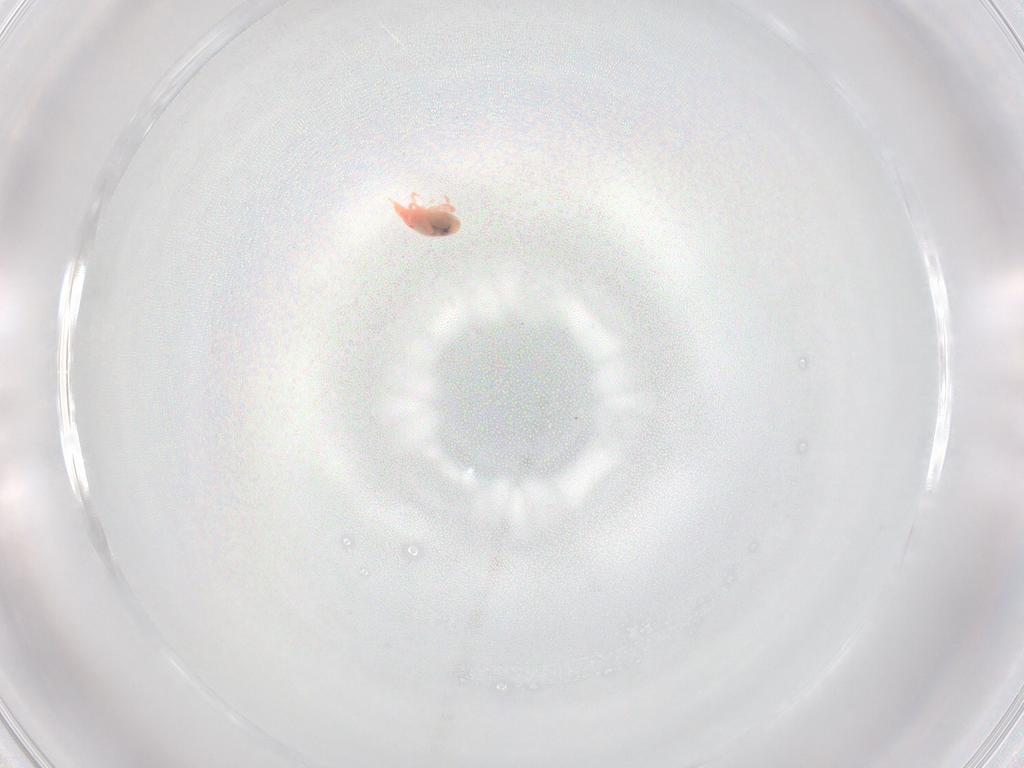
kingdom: Animalia
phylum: Arthropoda
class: Arachnida
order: Trombidiformes
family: Bdellidae
